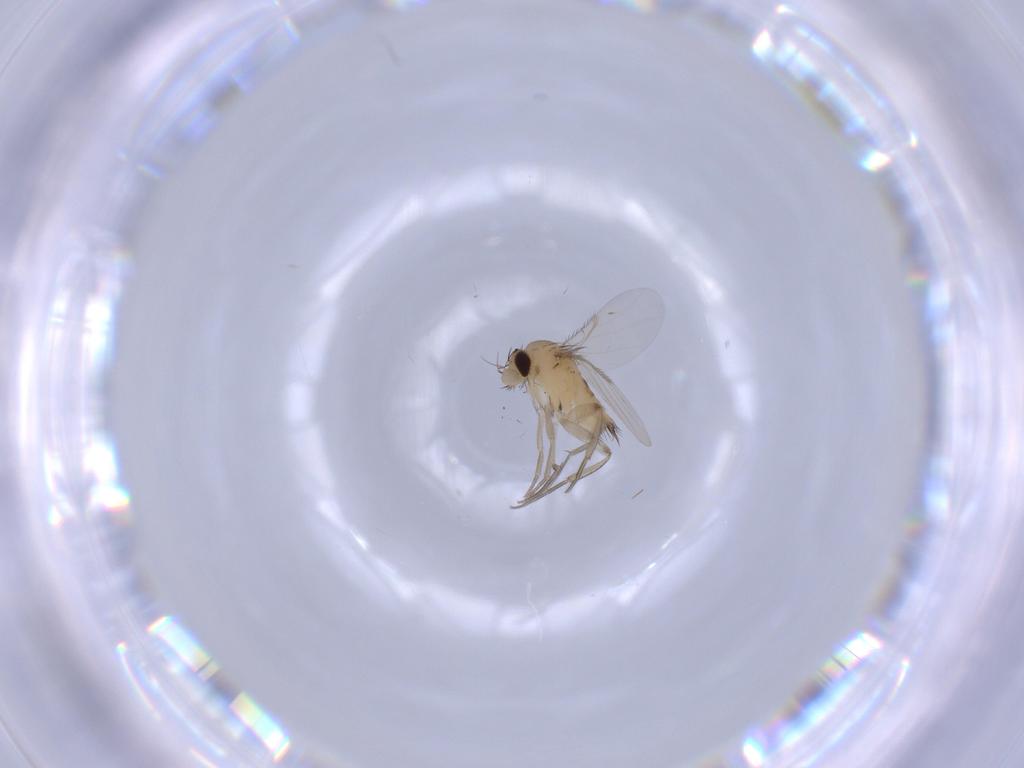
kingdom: Animalia
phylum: Arthropoda
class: Insecta
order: Diptera
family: Phoridae
